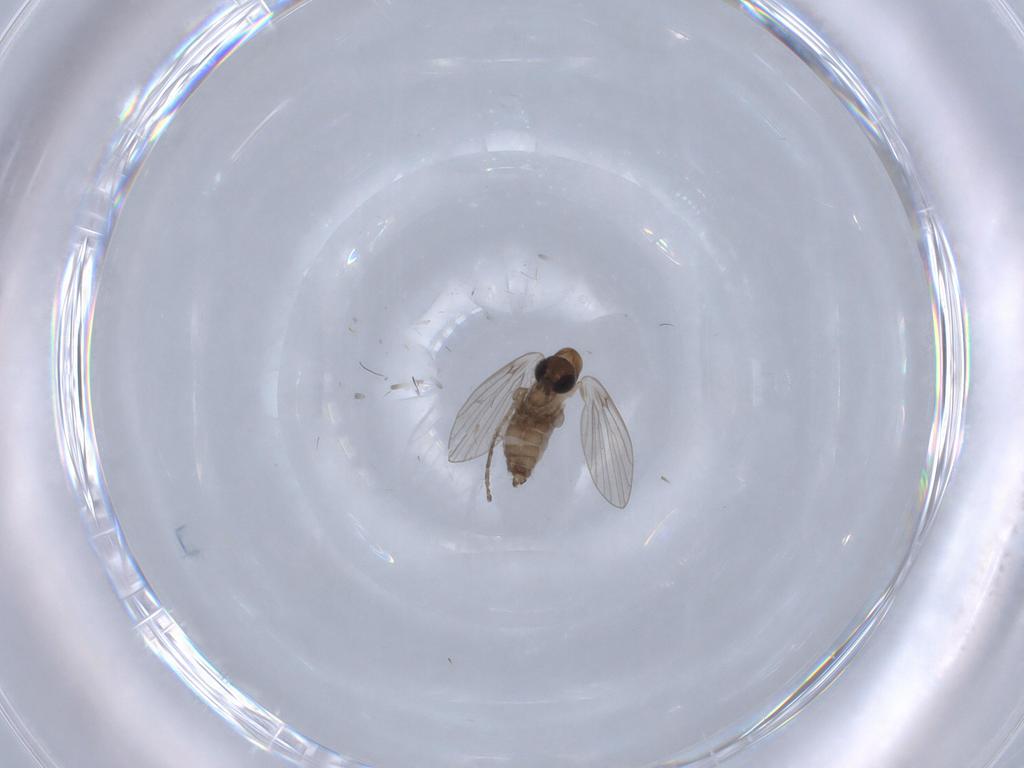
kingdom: Animalia
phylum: Arthropoda
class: Insecta
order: Diptera
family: Psychodidae
